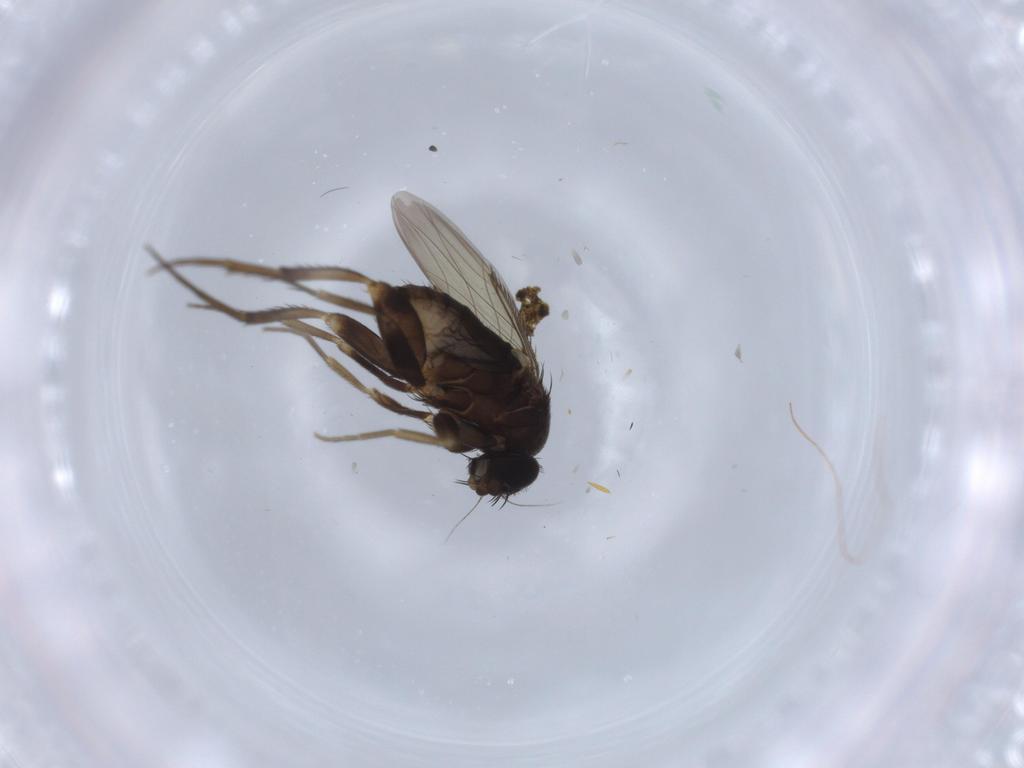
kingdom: Animalia
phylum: Arthropoda
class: Insecta
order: Diptera
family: Phoridae
